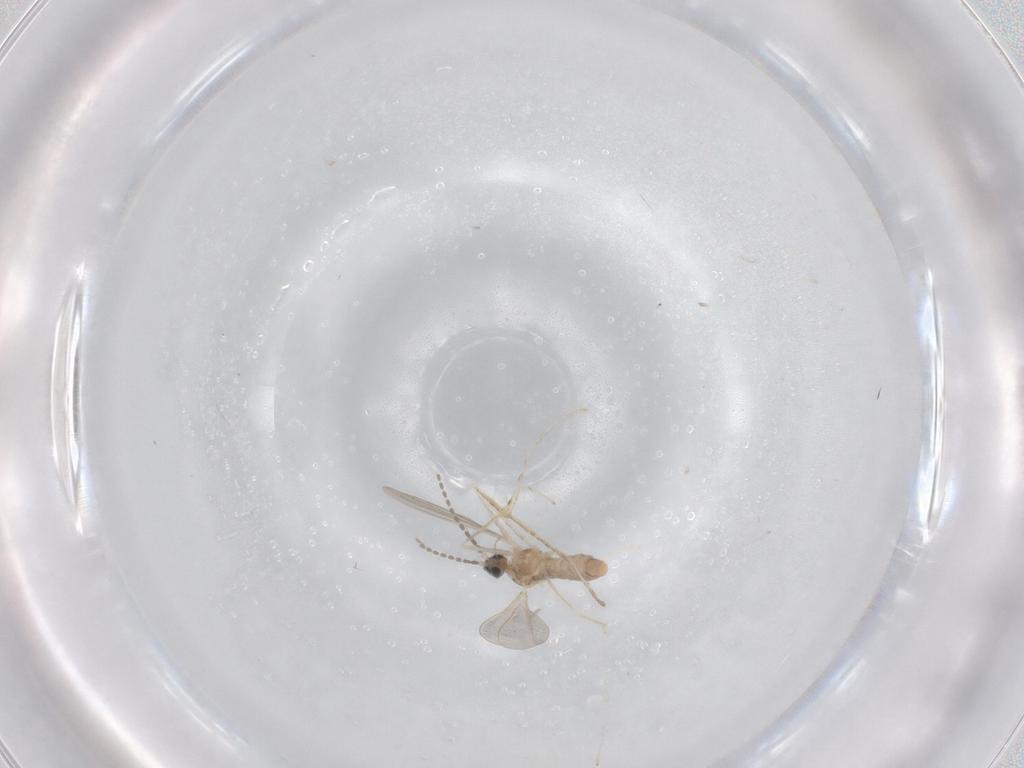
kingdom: Animalia
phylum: Arthropoda
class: Insecta
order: Diptera
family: Cecidomyiidae
